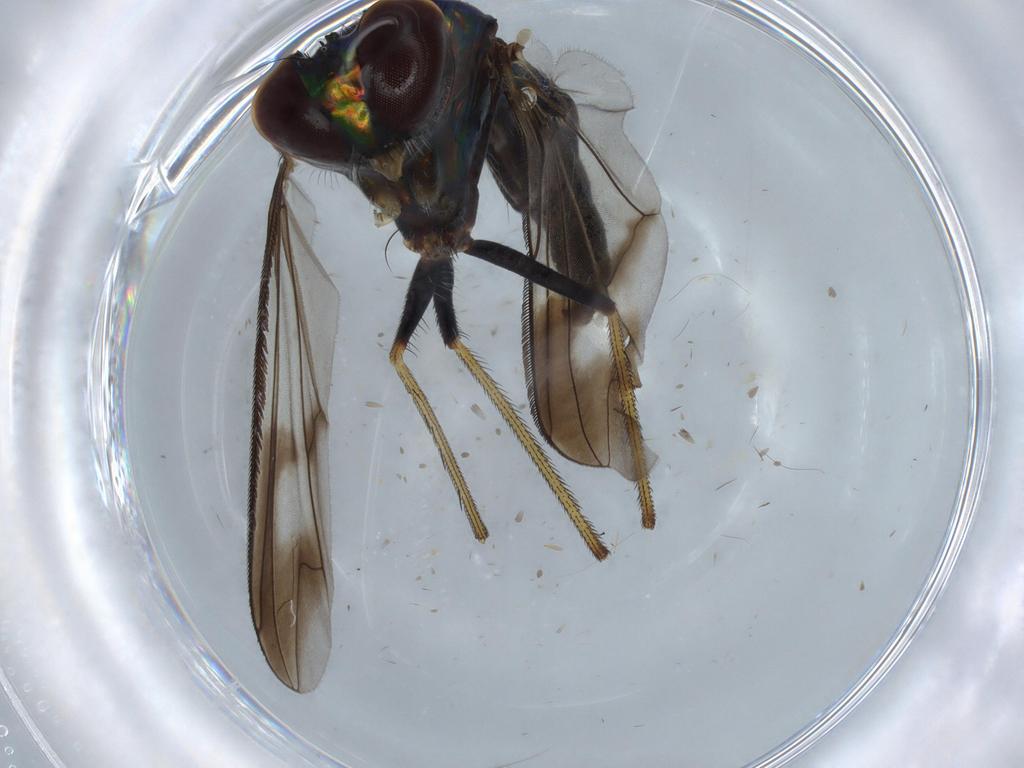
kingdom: Animalia
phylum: Arthropoda
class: Insecta
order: Diptera
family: Dolichopodidae
